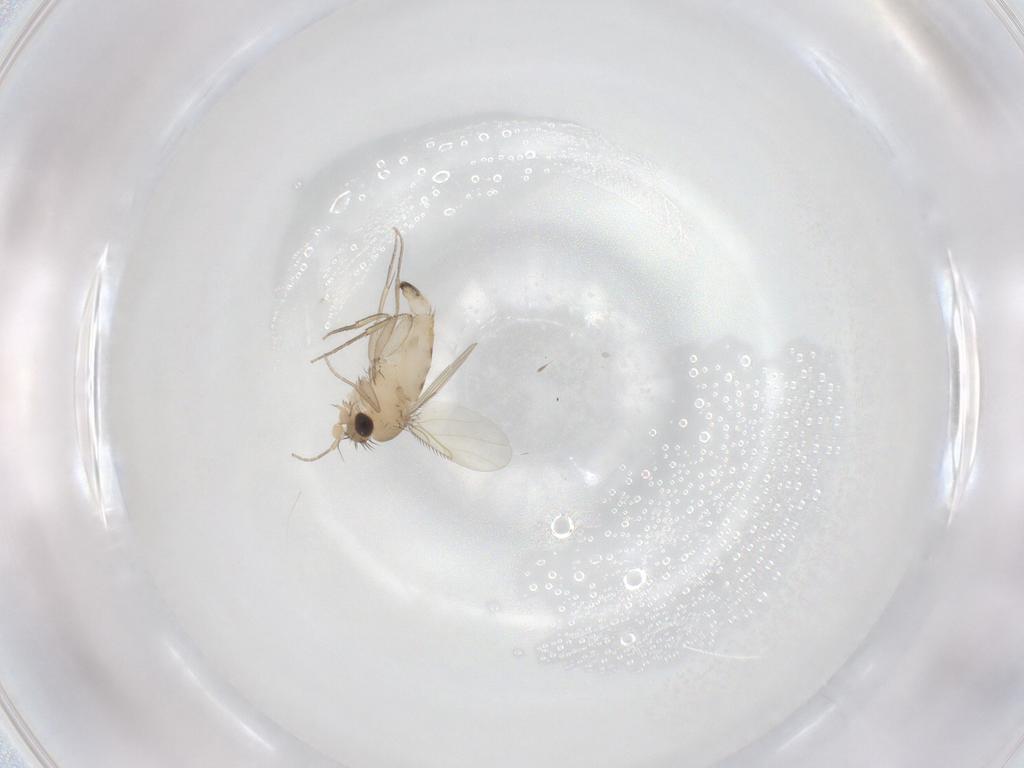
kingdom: Animalia
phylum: Arthropoda
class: Insecta
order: Diptera
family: Phoridae
